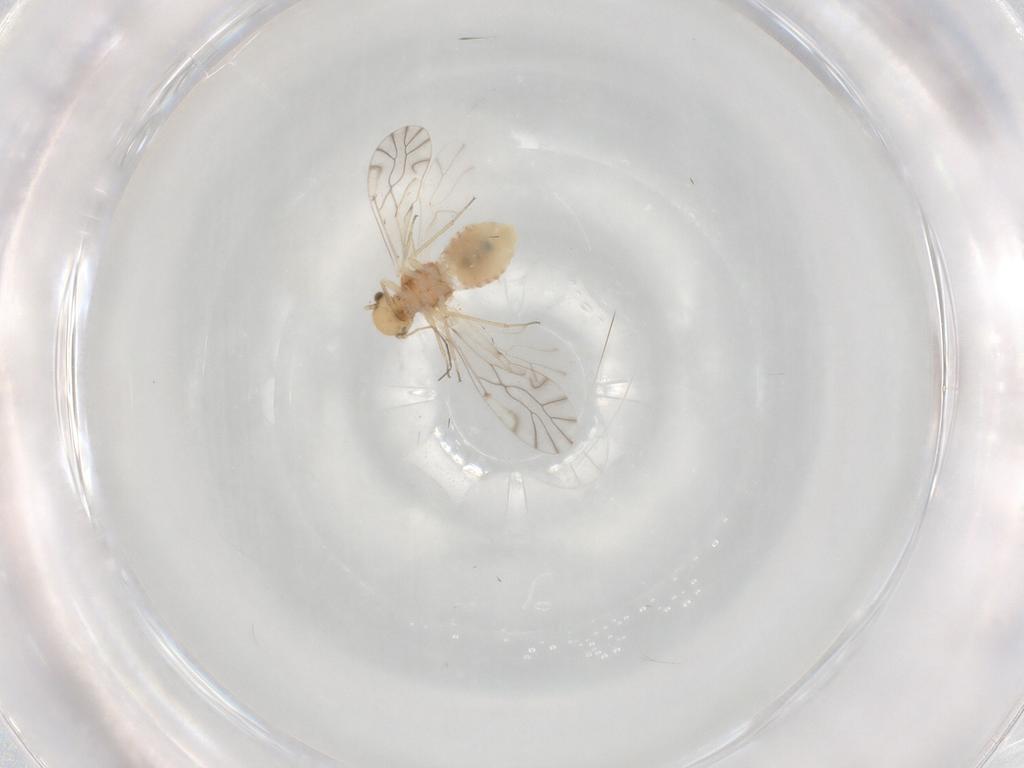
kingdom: Animalia
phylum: Arthropoda
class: Insecta
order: Psocodea
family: Lachesillidae
